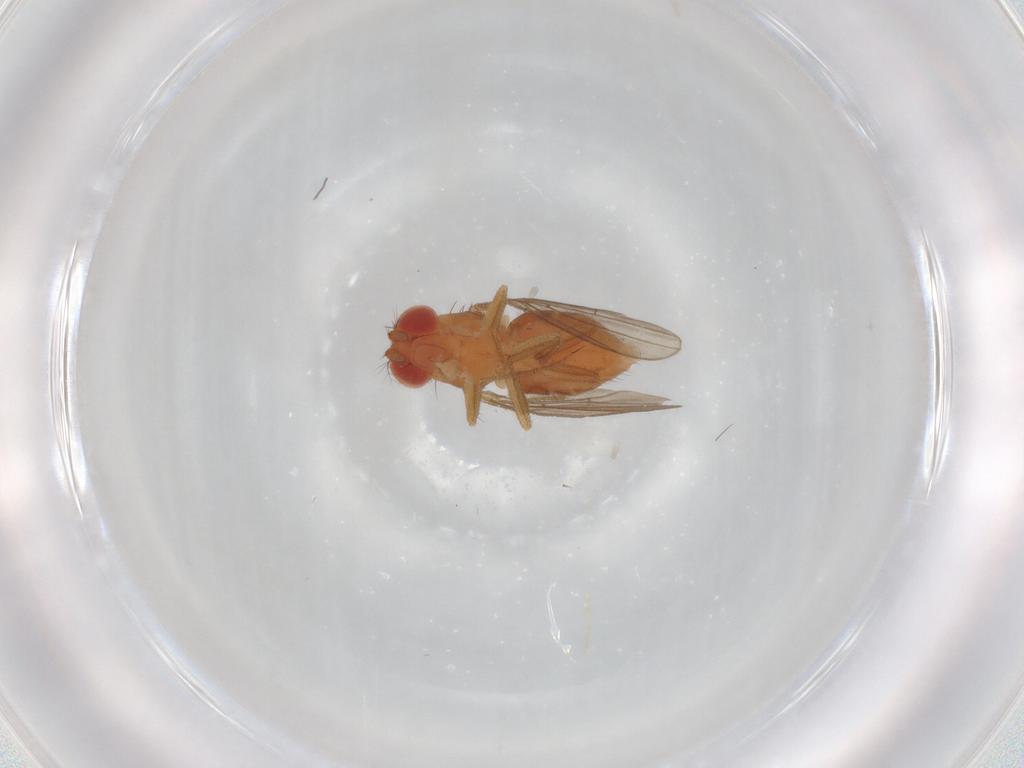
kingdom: Animalia
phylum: Arthropoda
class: Insecta
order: Diptera
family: Drosophilidae
